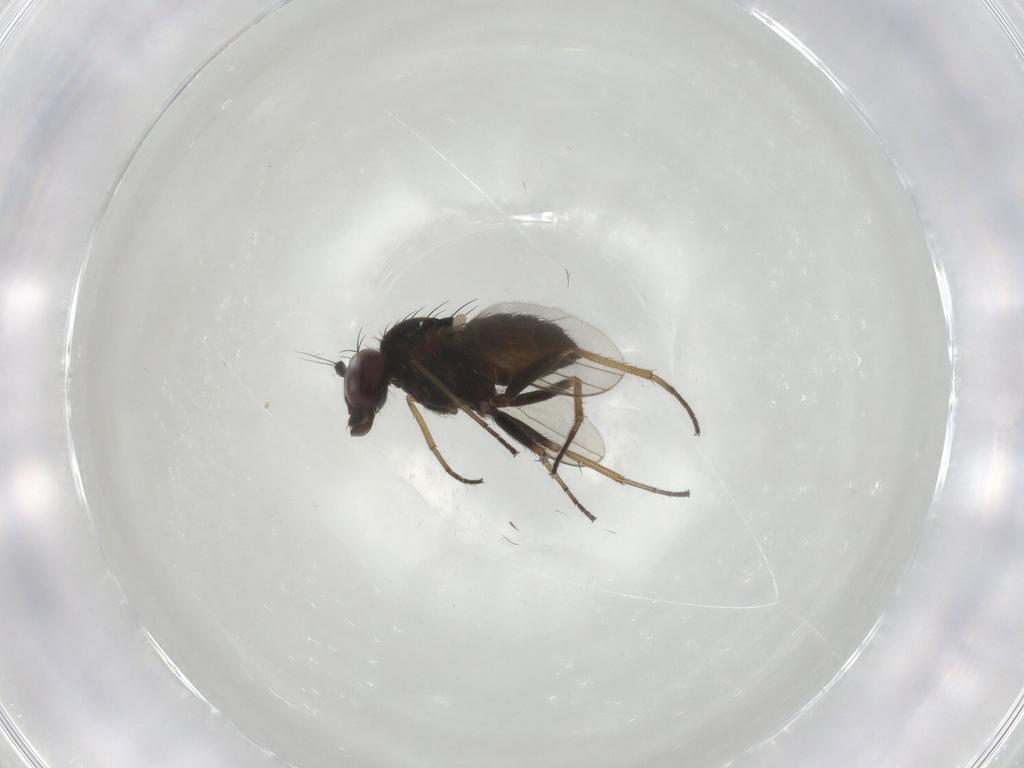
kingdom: Animalia
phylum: Arthropoda
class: Insecta
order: Diptera
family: Dolichopodidae
